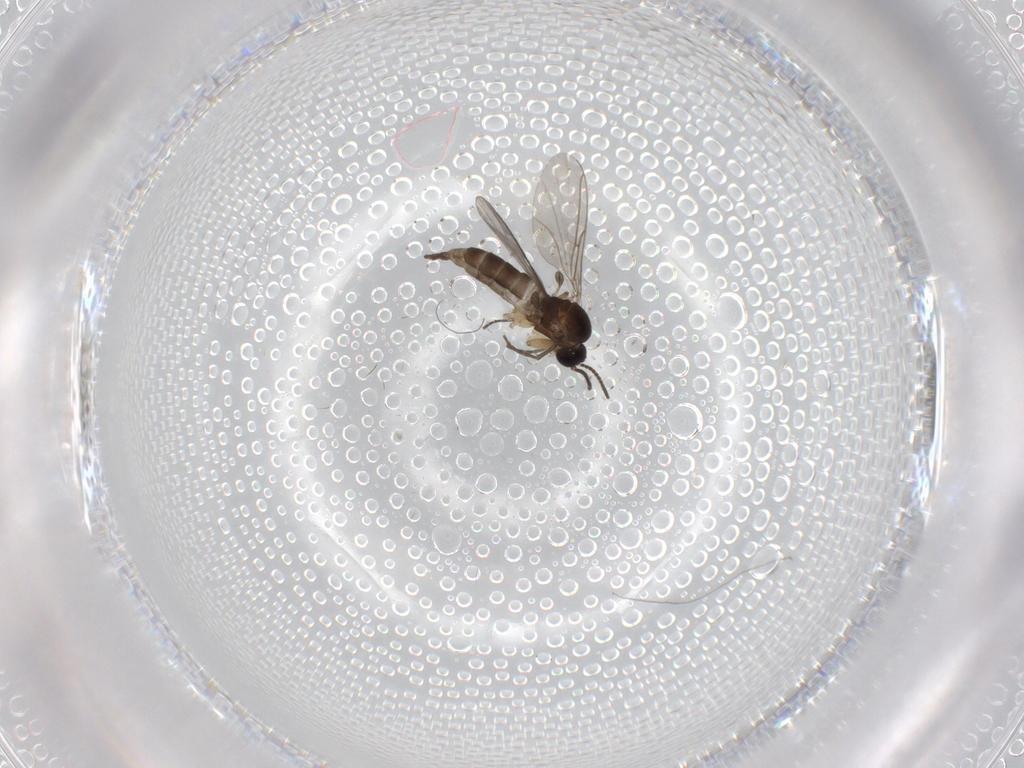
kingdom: Animalia
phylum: Arthropoda
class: Insecta
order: Diptera
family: Sciaridae
